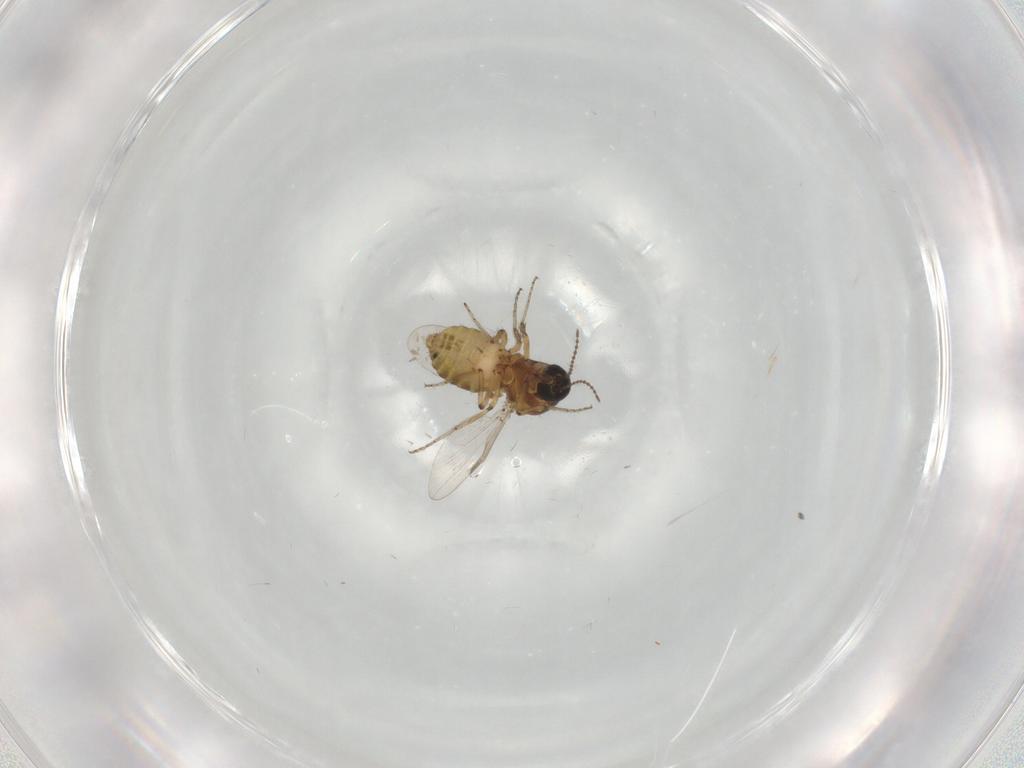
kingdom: Animalia
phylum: Arthropoda
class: Insecta
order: Diptera
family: Ceratopogonidae
